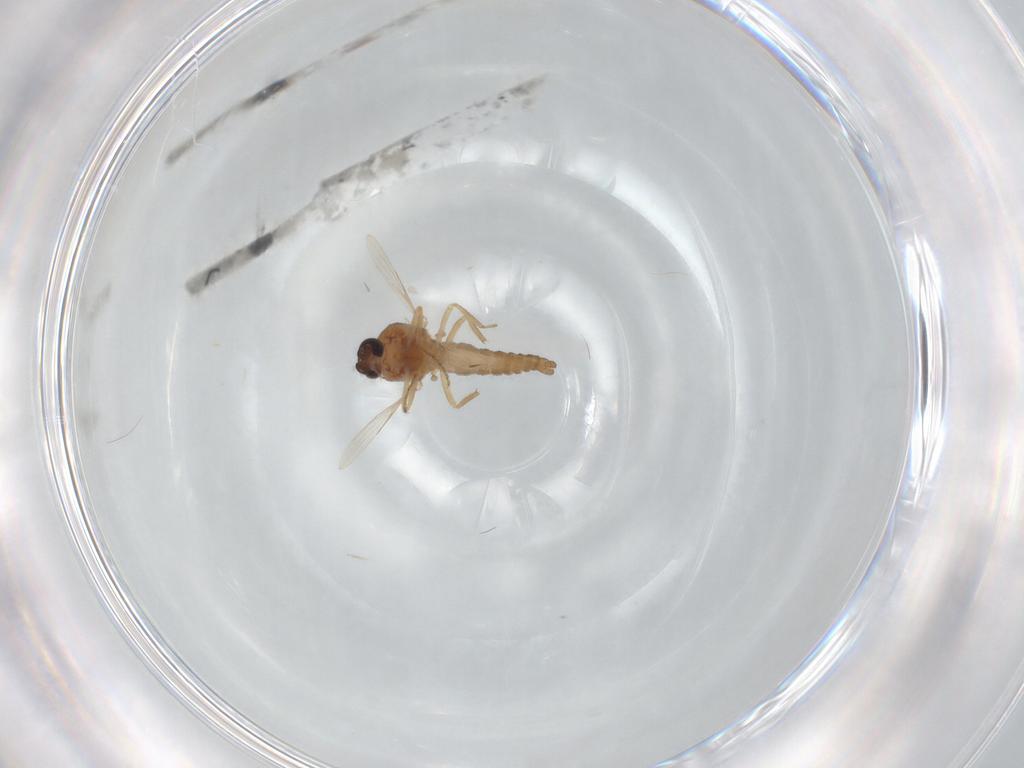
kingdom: Animalia
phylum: Arthropoda
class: Insecta
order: Diptera
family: Ceratopogonidae
